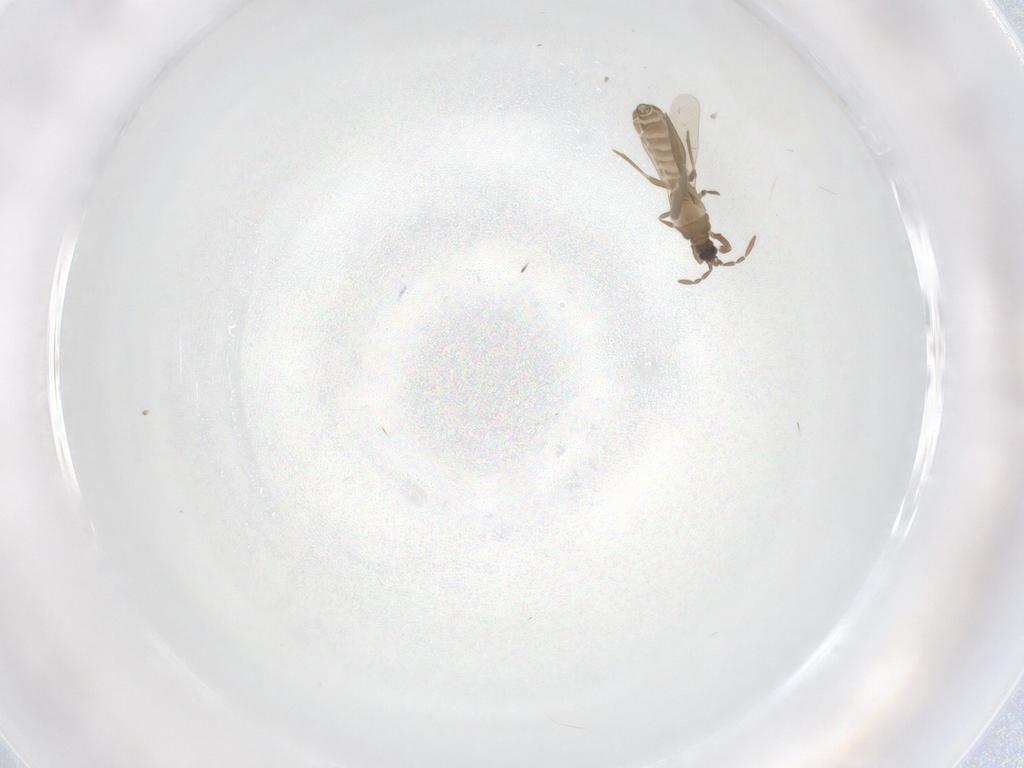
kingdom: Animalia
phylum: Arthropoda
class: Insecta
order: Hemiptera
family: Enicocephalidae
